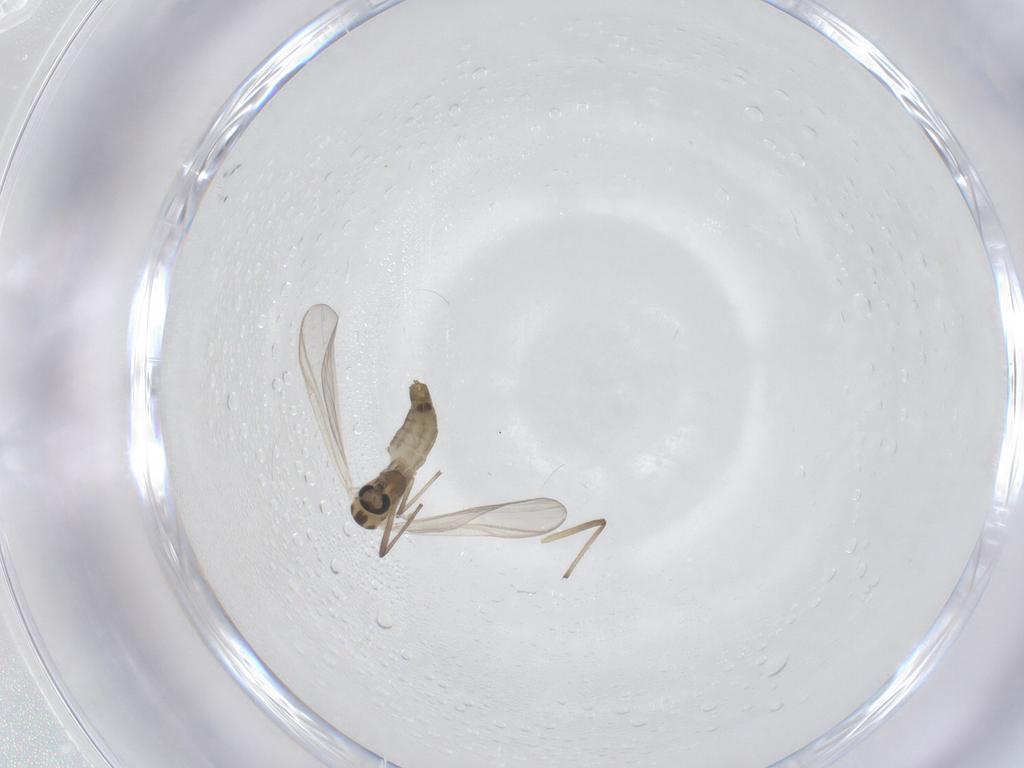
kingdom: Animalia
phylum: Arthropoda
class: Insecta
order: Diptera
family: Chironomidae
